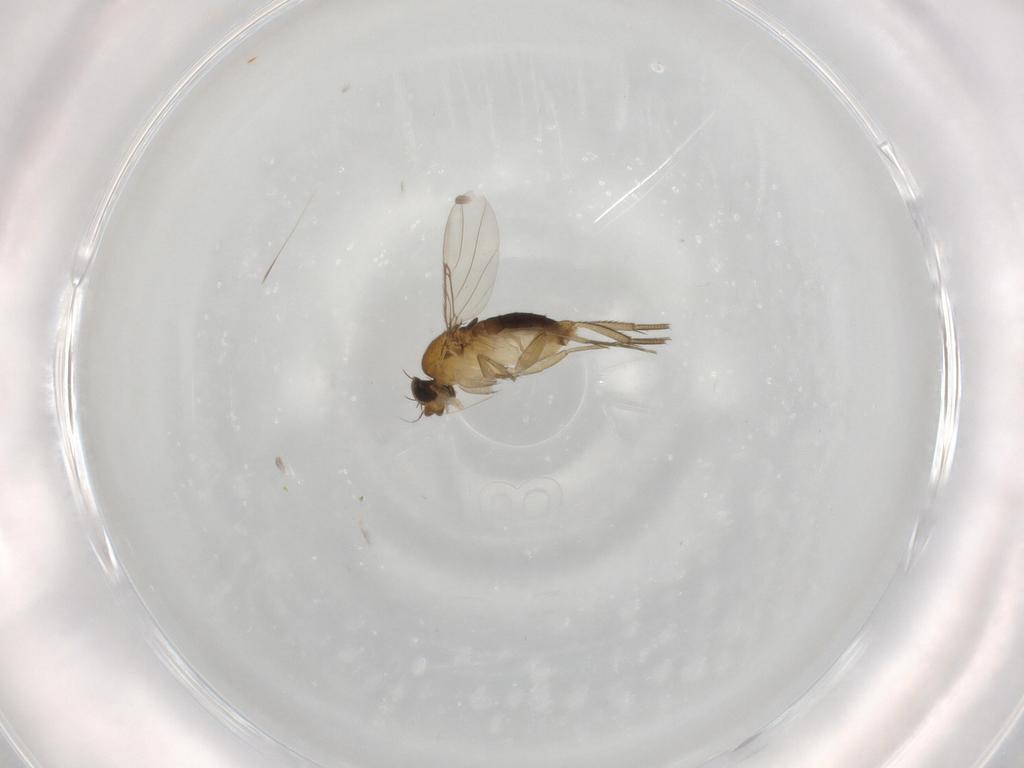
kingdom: Animalia
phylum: Arthropoda
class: Insecta
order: Diptera
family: Phoridae
